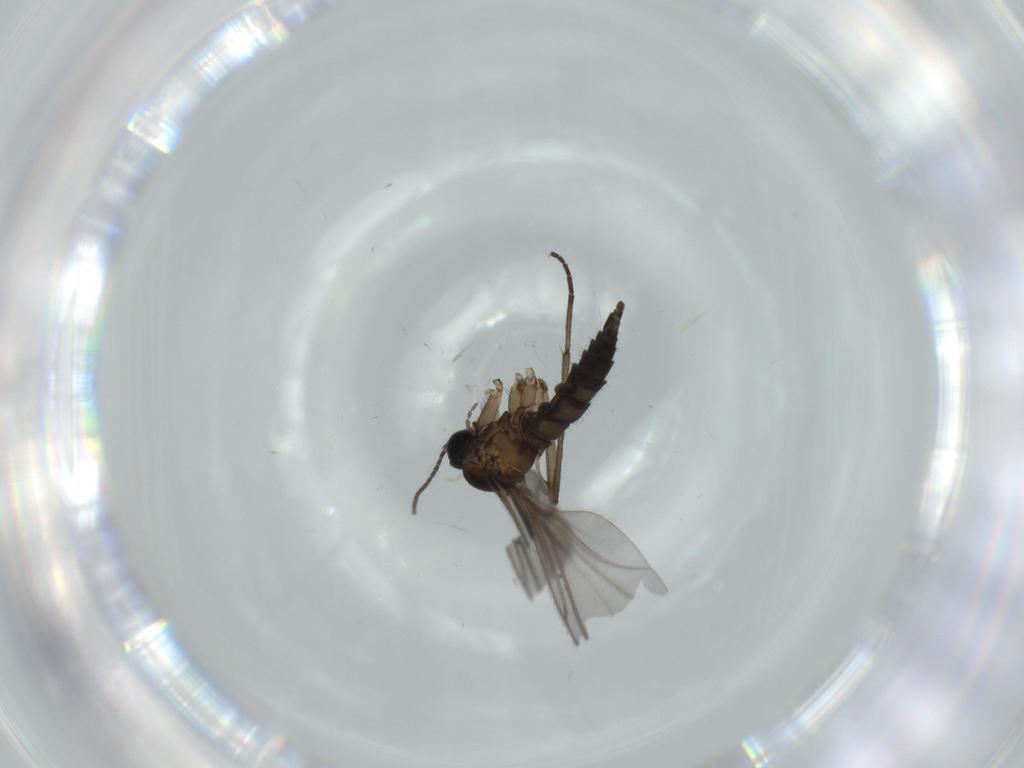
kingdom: Animalia
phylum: Arthropoda
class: Insecta
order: Diptera
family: Sciaridae
